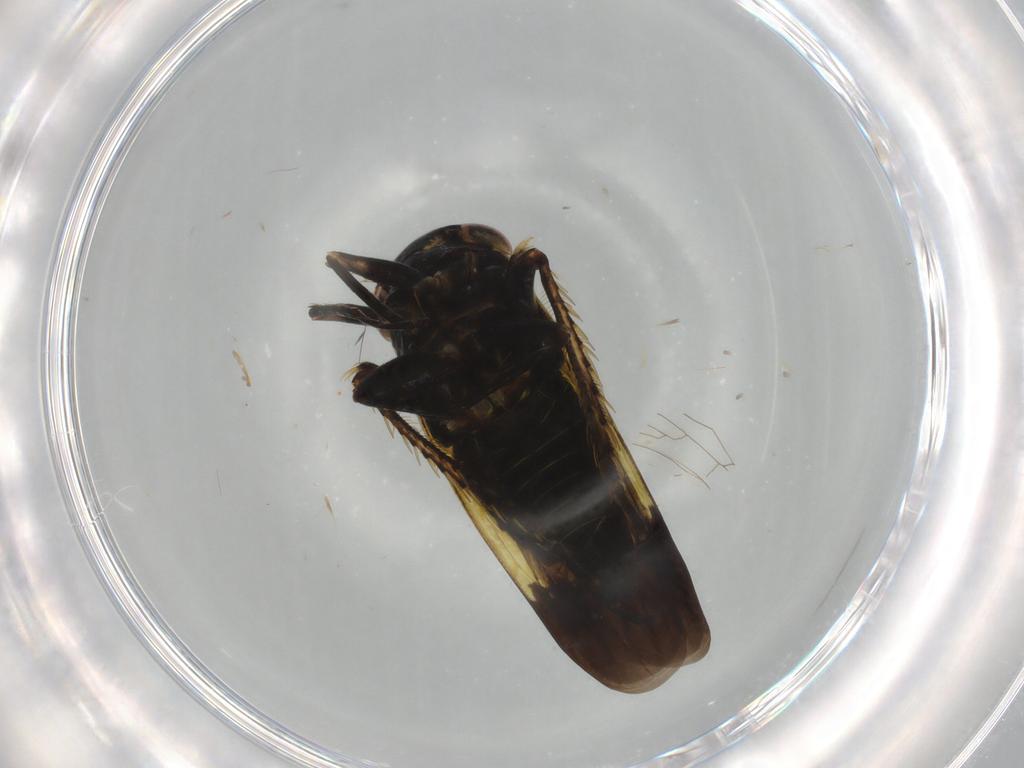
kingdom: Animalia
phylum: Arthropoda
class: Insecta
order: Hemiptera
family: Cicadellidae
